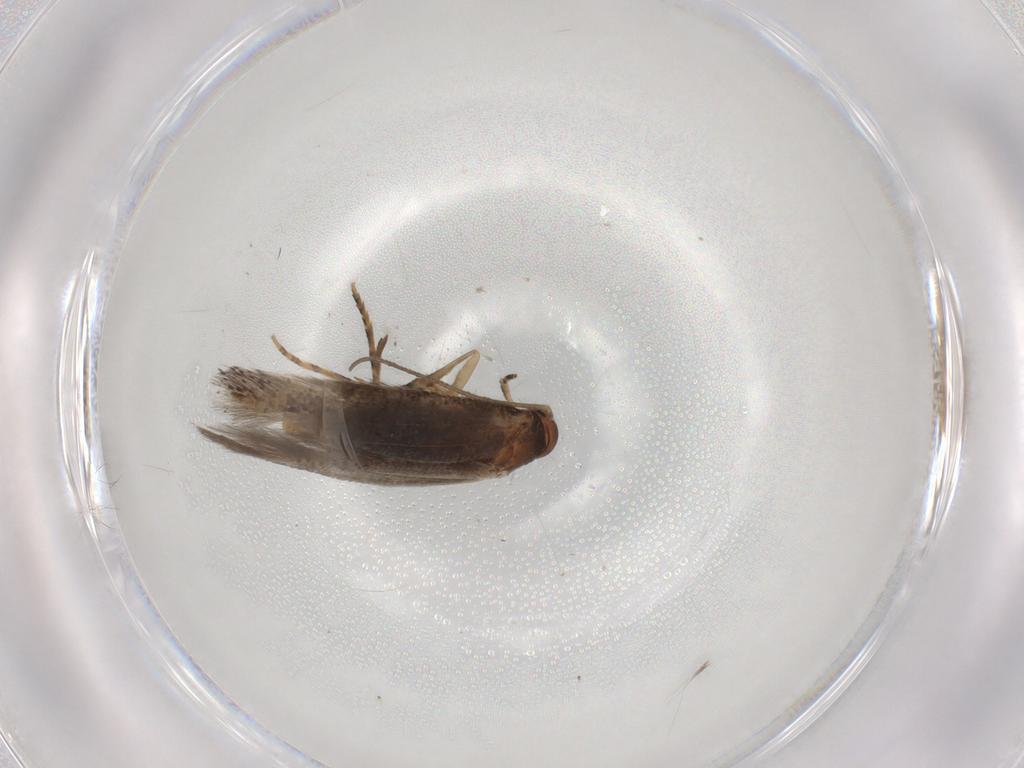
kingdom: Animalia
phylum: Arthropoda
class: Insecta
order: Lepidoptera
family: Elachistidae
